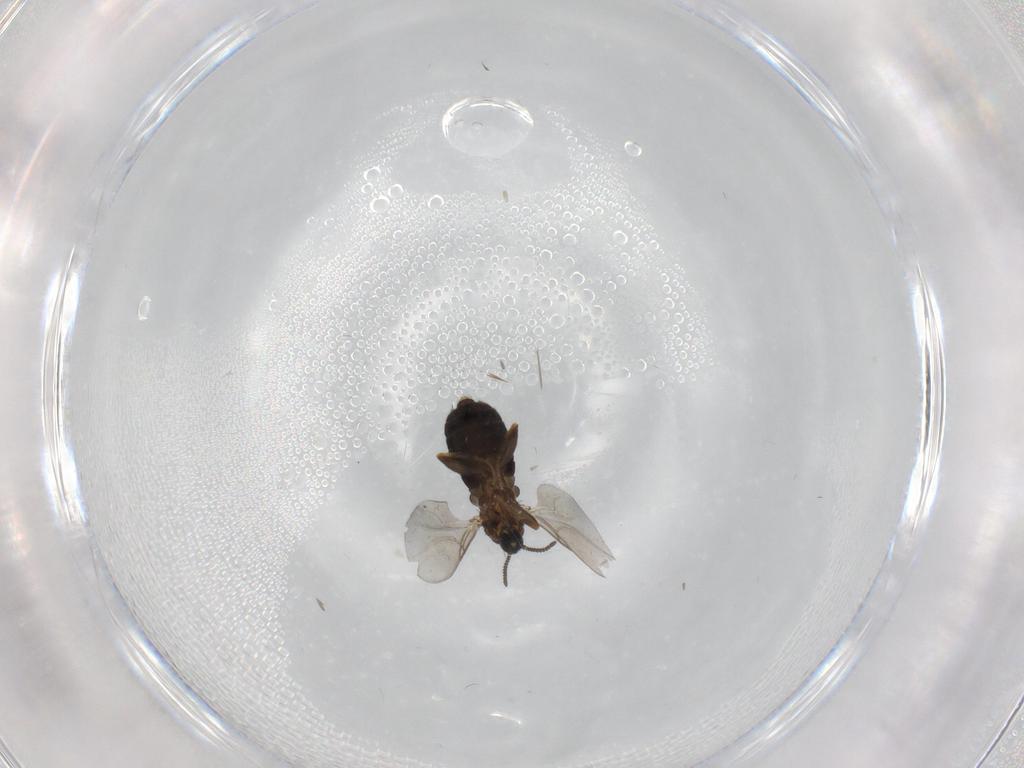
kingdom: Animalia
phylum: Arthropoda
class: Insecta
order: Diptera
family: Scatopsidae
